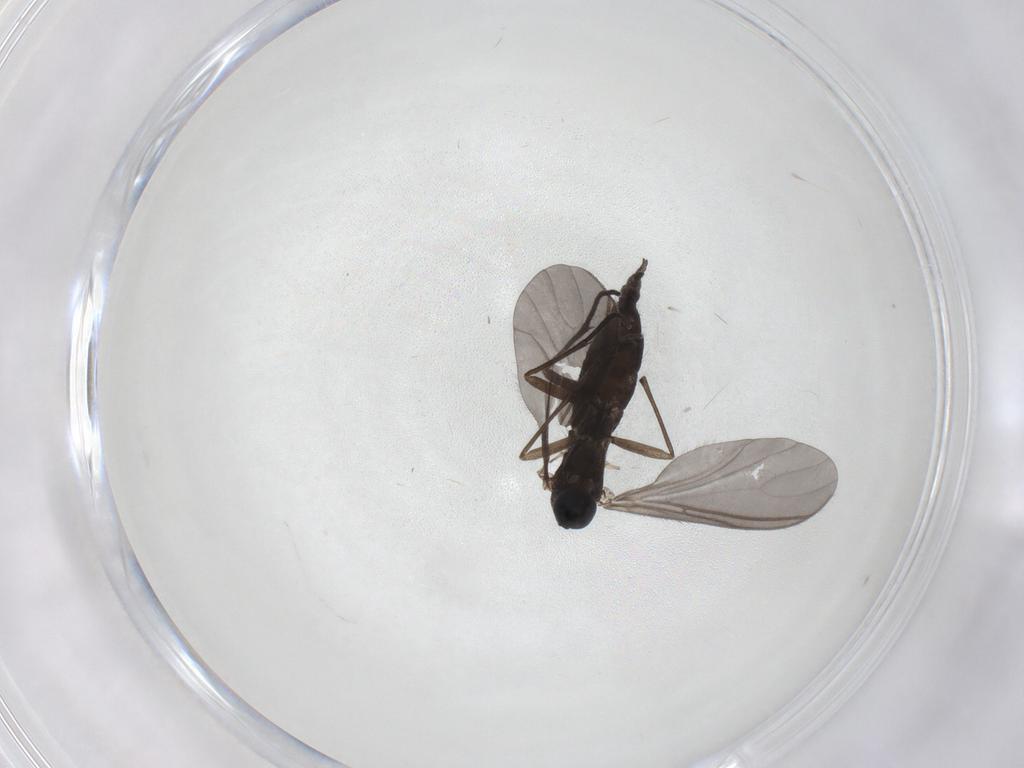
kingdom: Animalia
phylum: Arthropoda
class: Insecta
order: Diptera
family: Sciaridae
